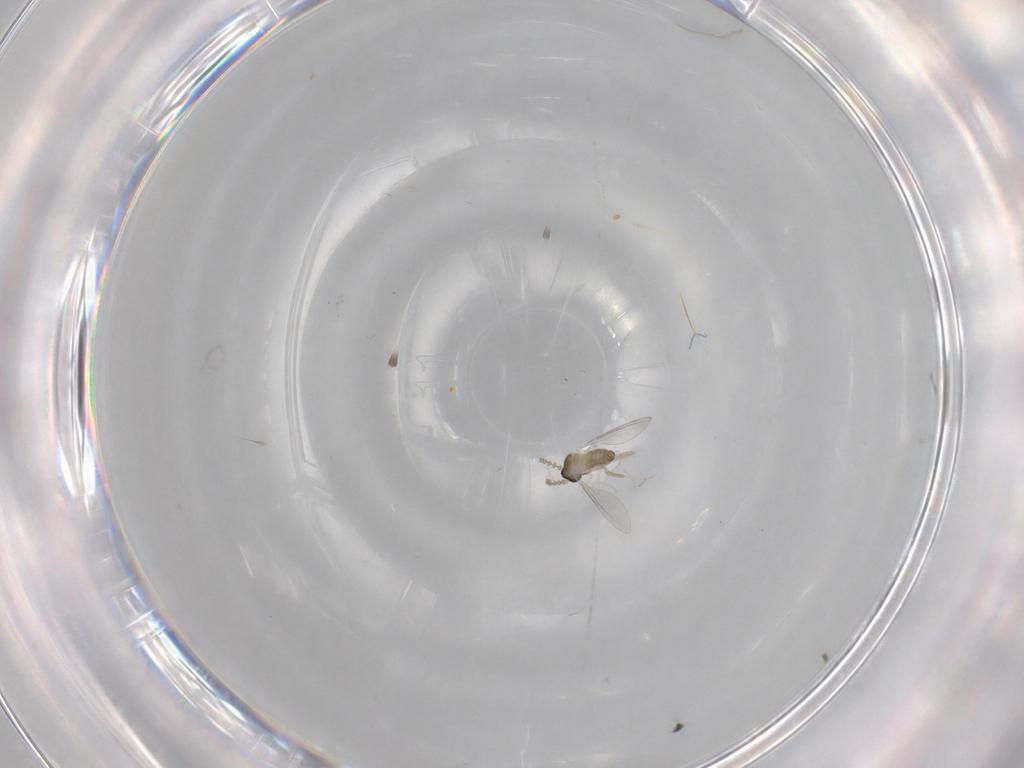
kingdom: Animalia
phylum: Arthropoda
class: Insecta
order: Diptera
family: Cecidomyiidae
